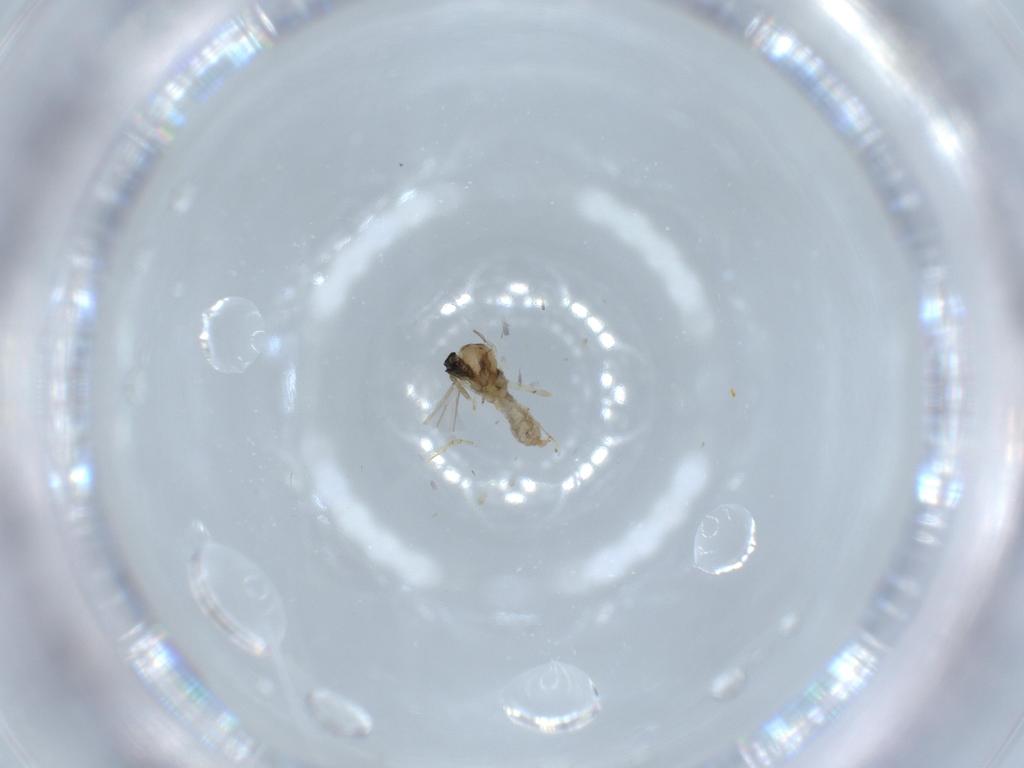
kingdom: Animalia
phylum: Arthropoda
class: Insecta
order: Diptera
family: Cecidomyiidae
